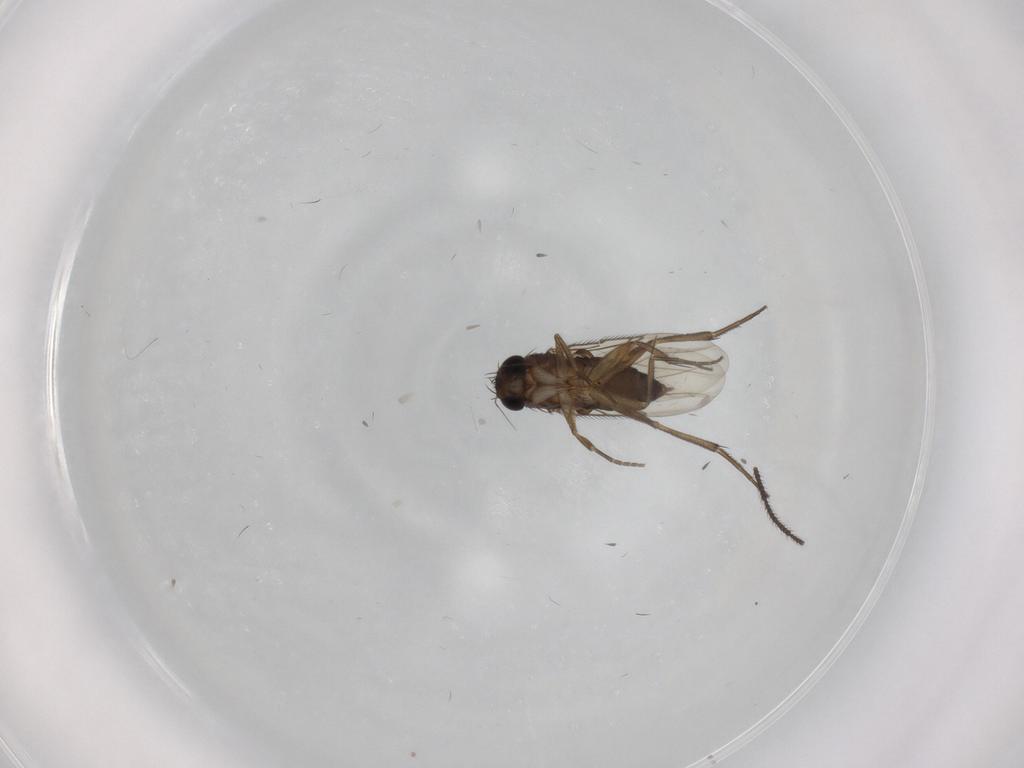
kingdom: Animalia
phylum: Arthropoda
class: Insecta
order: Diptera
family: Phoridae
